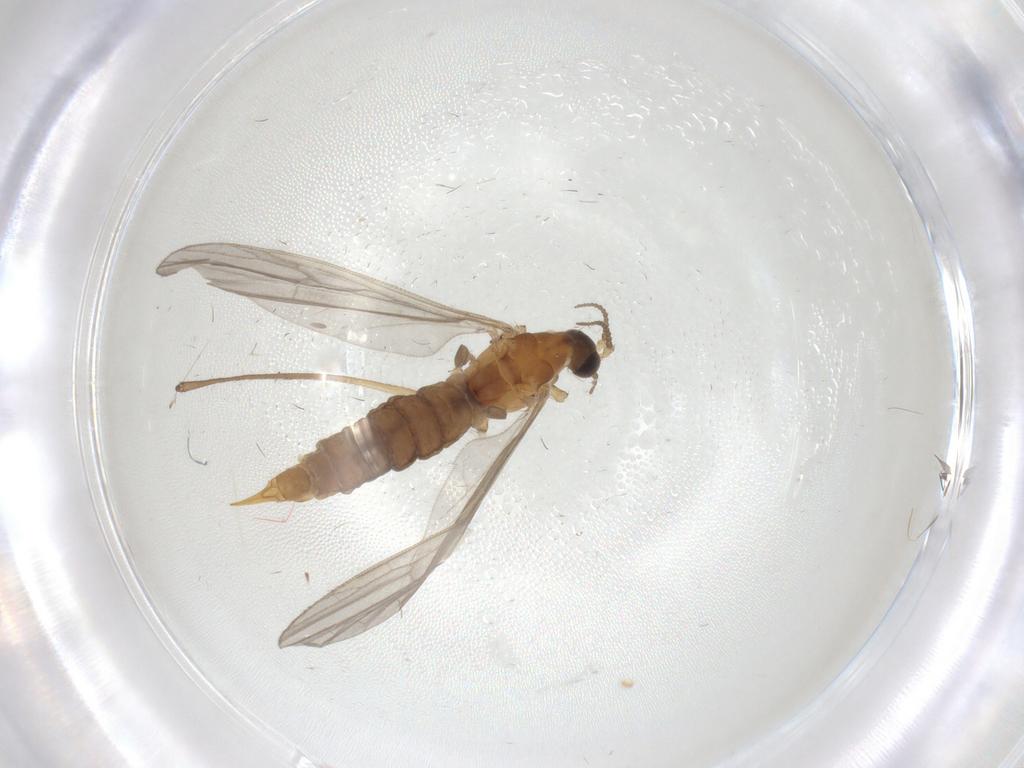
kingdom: Animalia
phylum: Arthropoda
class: Insecta
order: Diptera
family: Limoniidae
